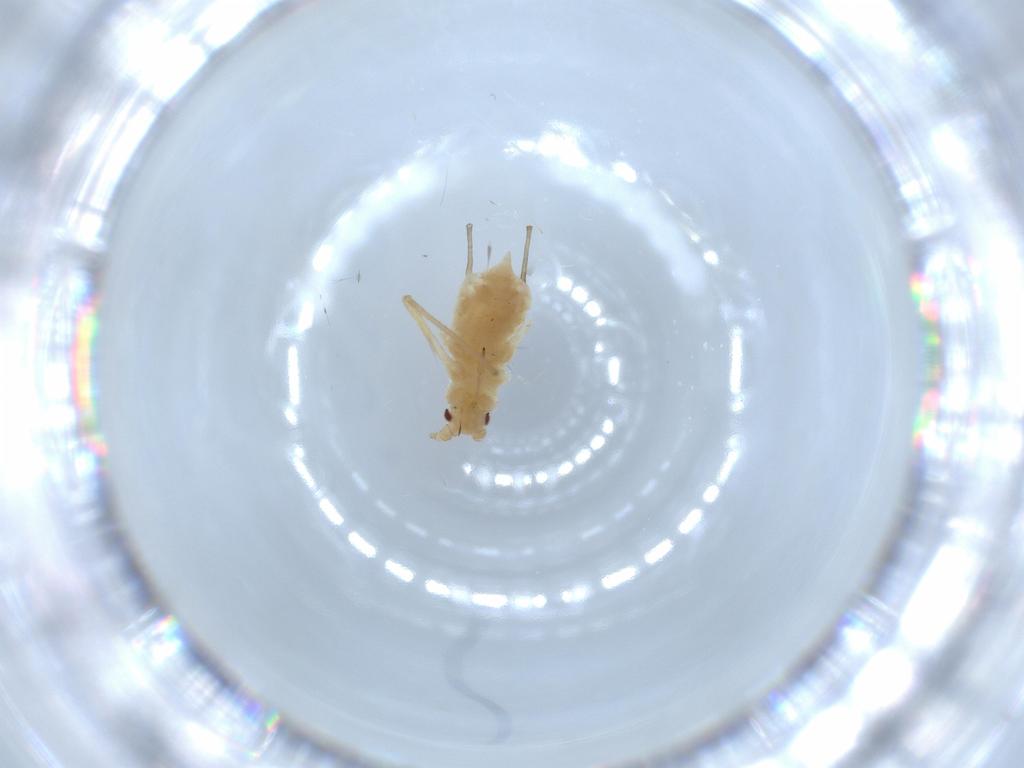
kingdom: Animalia
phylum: Arthropoda
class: Insecta
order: Hemiptera
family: Aphididae
